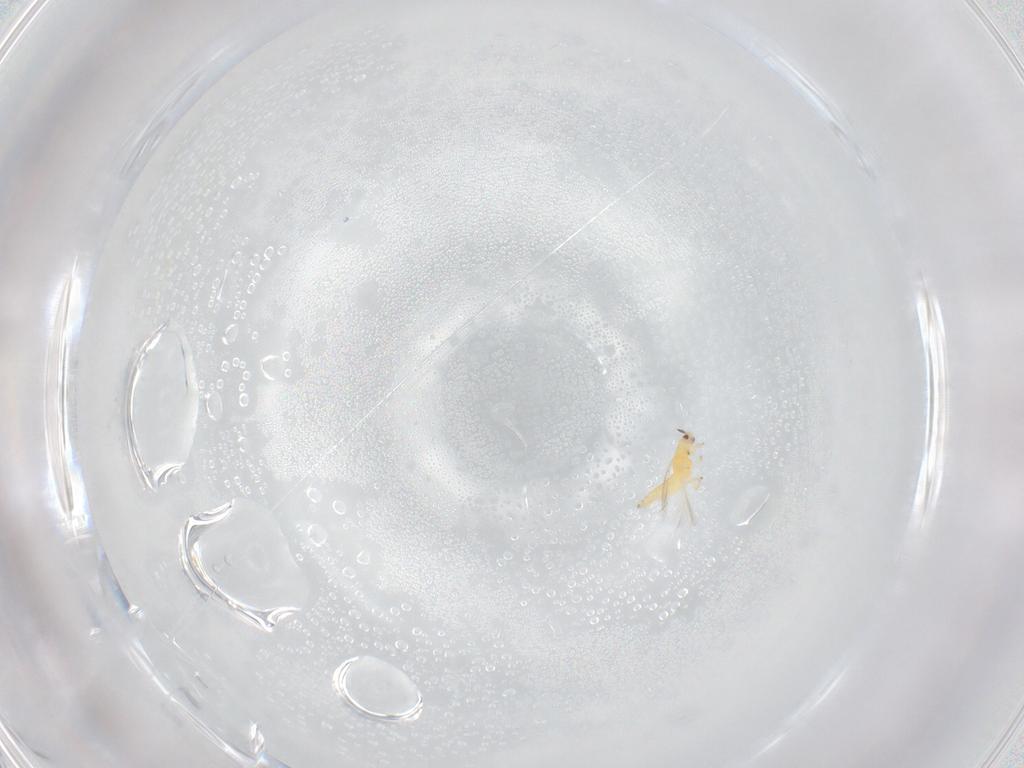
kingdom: Animalia
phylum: Arthropoda
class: Insecta
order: Thysanoptera
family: Thripidae
